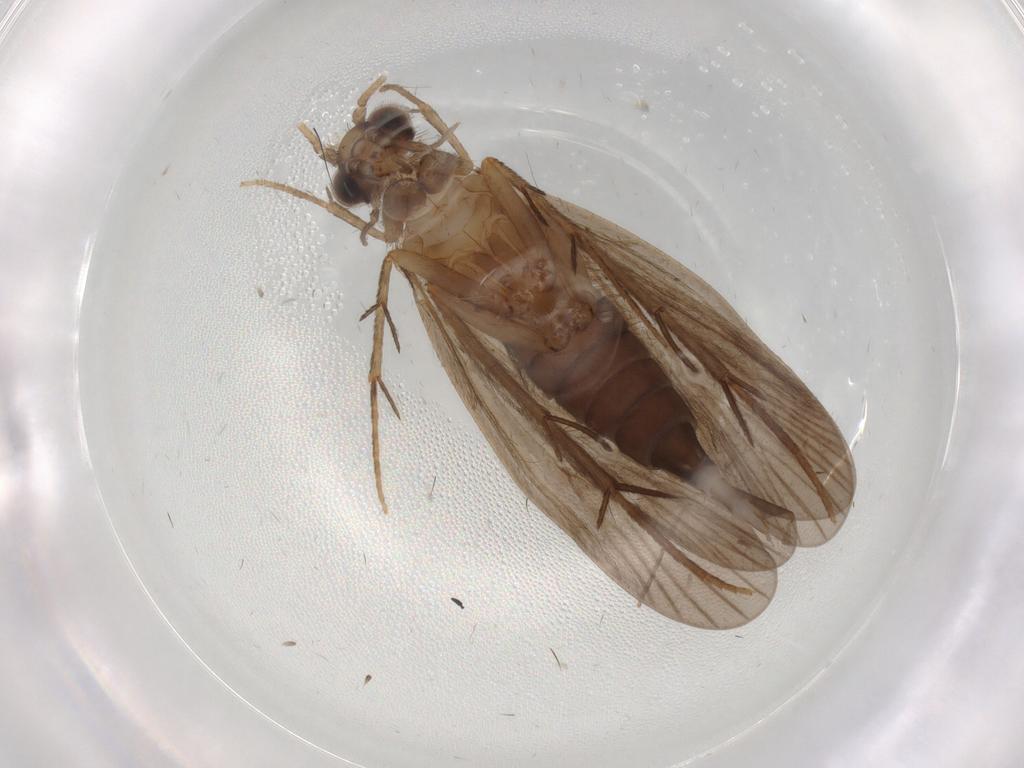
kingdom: Animalia
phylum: Arthropoda
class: Insecta
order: Trichoptera
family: Philopotamidae
